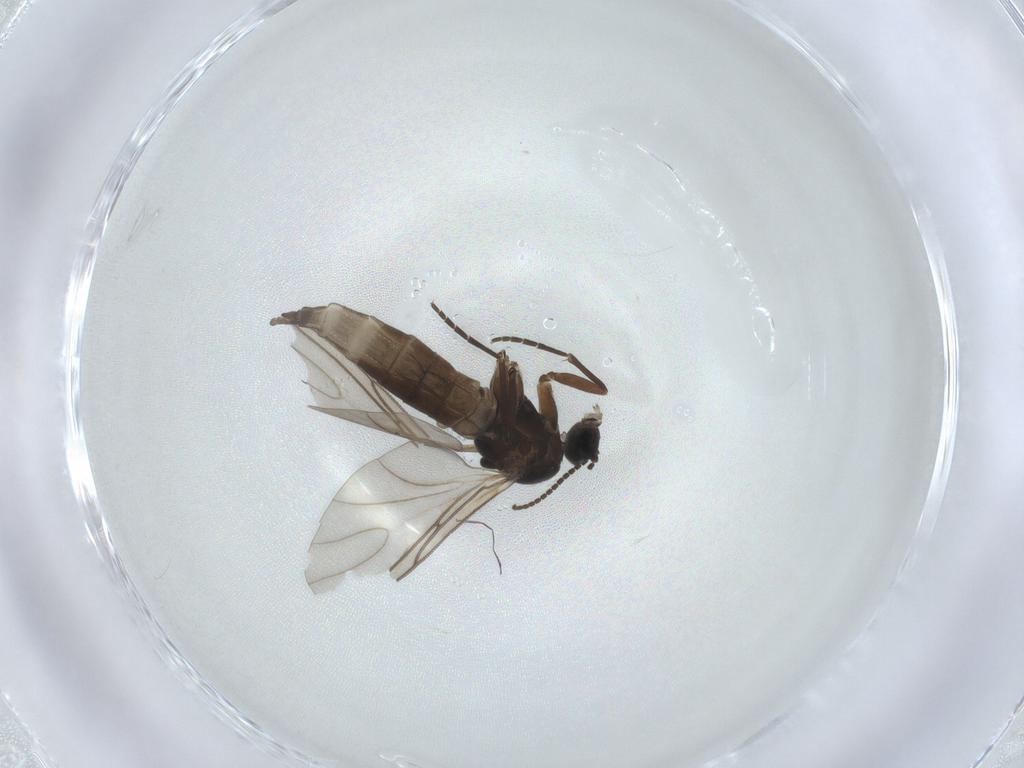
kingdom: Animalia
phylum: Arthropoda
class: Insecta
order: Diptera
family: Sciaridae
